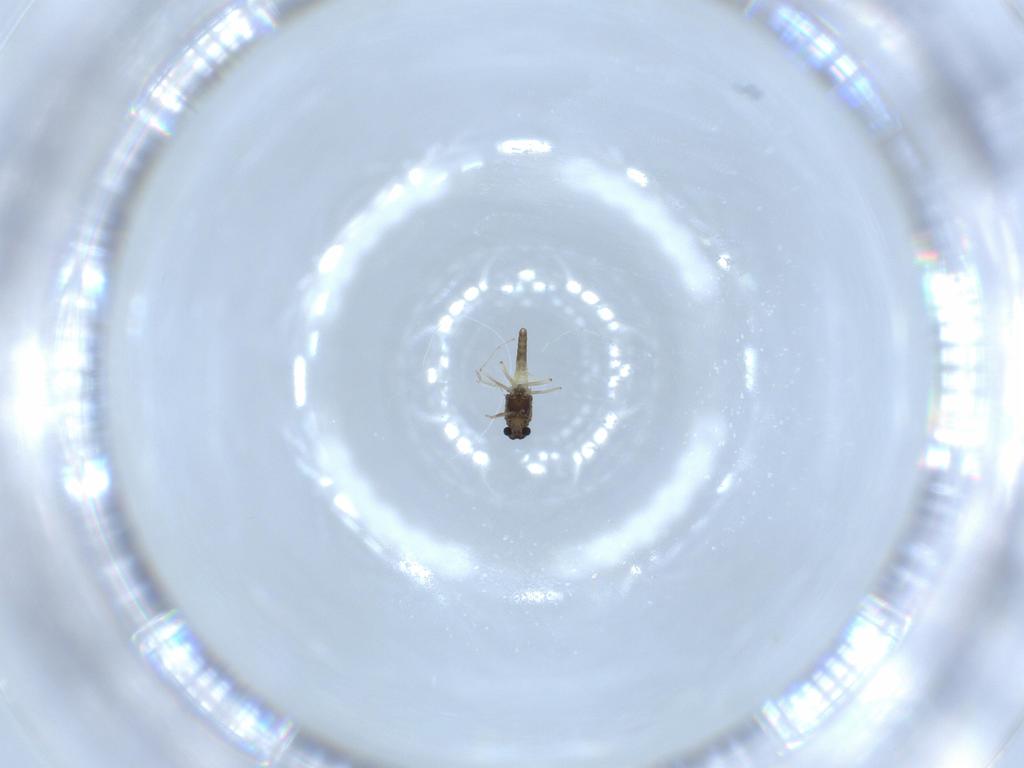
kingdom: Animalia
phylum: Arthropoda
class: Insecta
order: Diptera
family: Chironomidae
